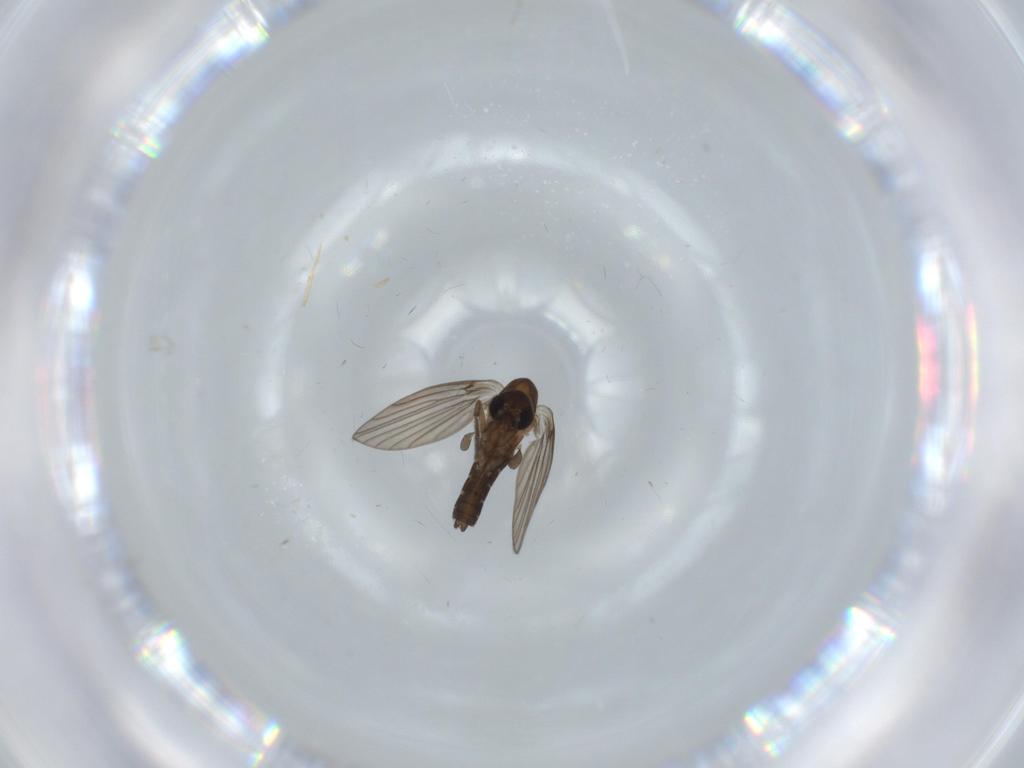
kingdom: Animalia
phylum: Arthropoda
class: Insecta
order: Diptera
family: Psychodidae
